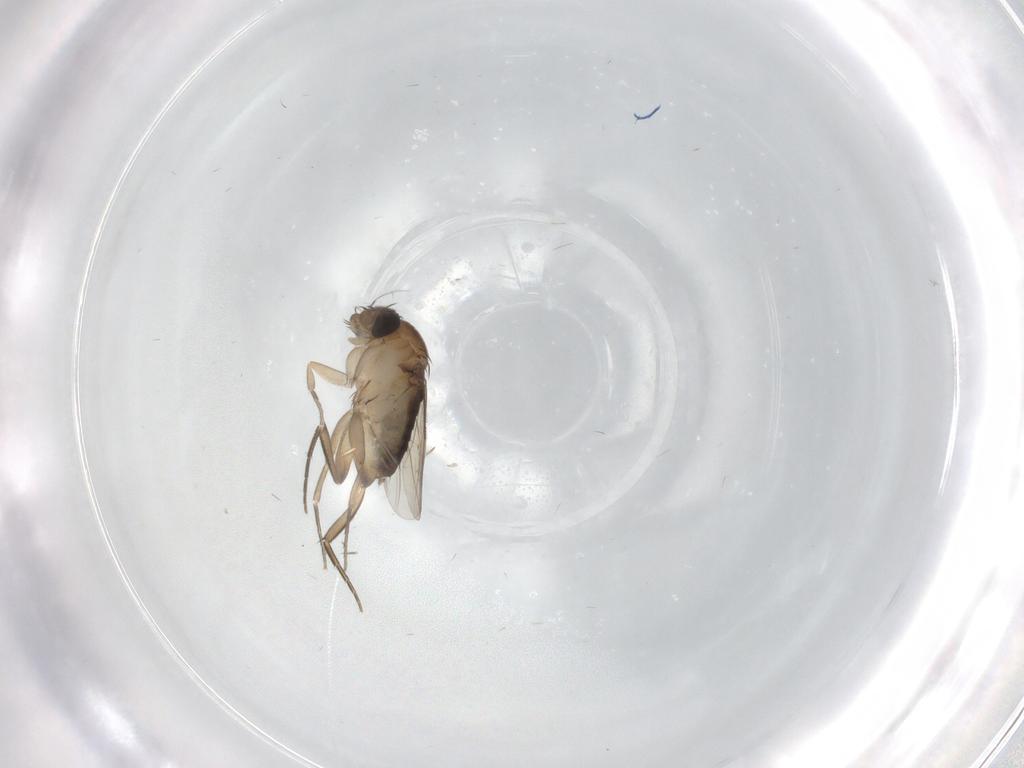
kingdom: Animalia
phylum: Arthropoda
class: Insecta
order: Diptera
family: Phoridae
